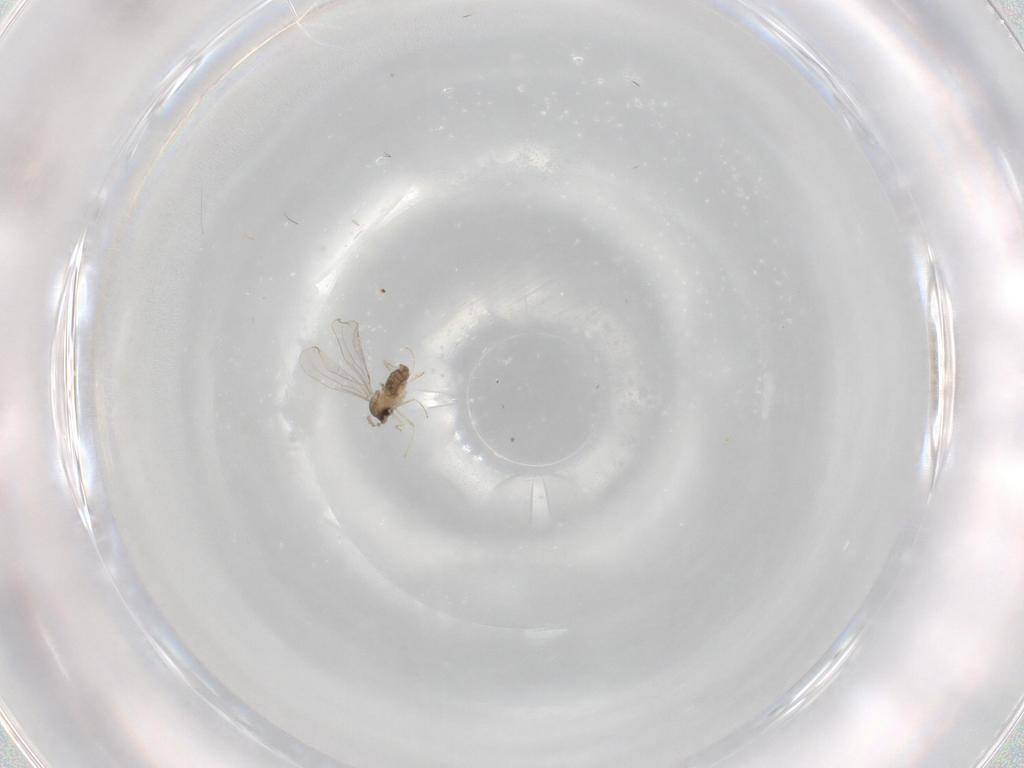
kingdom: Animalia
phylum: Arthropoda
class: Insecta
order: Diptera
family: Cecidomyiidae
